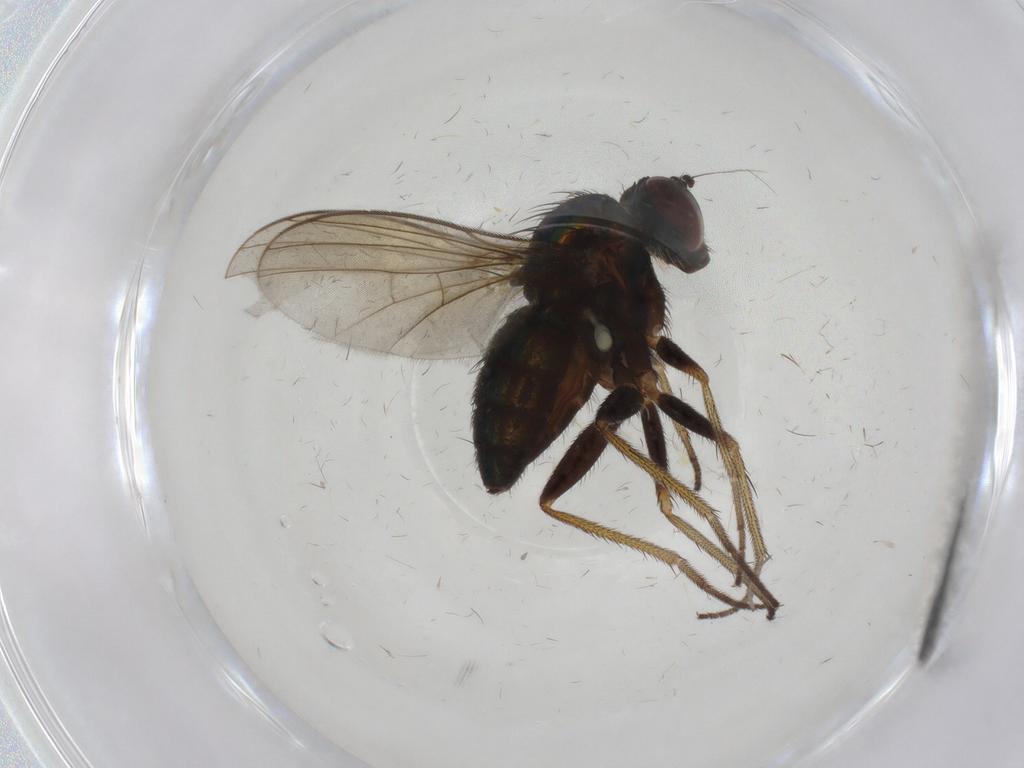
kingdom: Animalia
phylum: Arthropoda
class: Insecta
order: Diptera
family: Limoniidae
